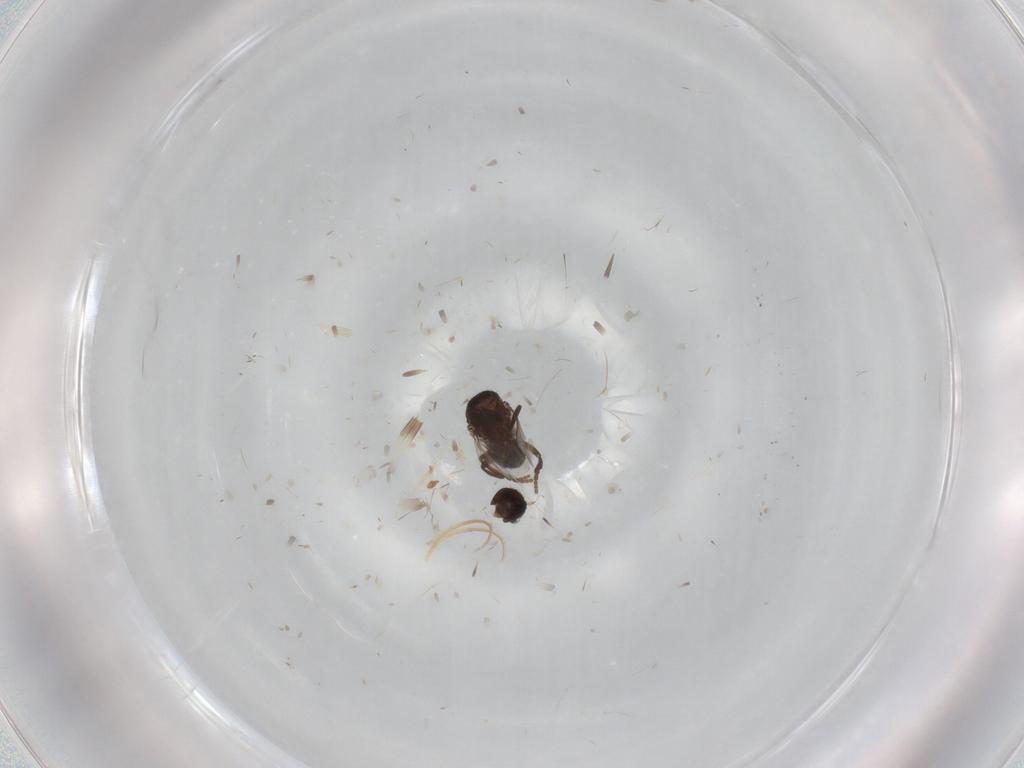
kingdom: Animalia
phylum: Arthropoda
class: Insecta
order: Diptera
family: Sphaeroceridae
